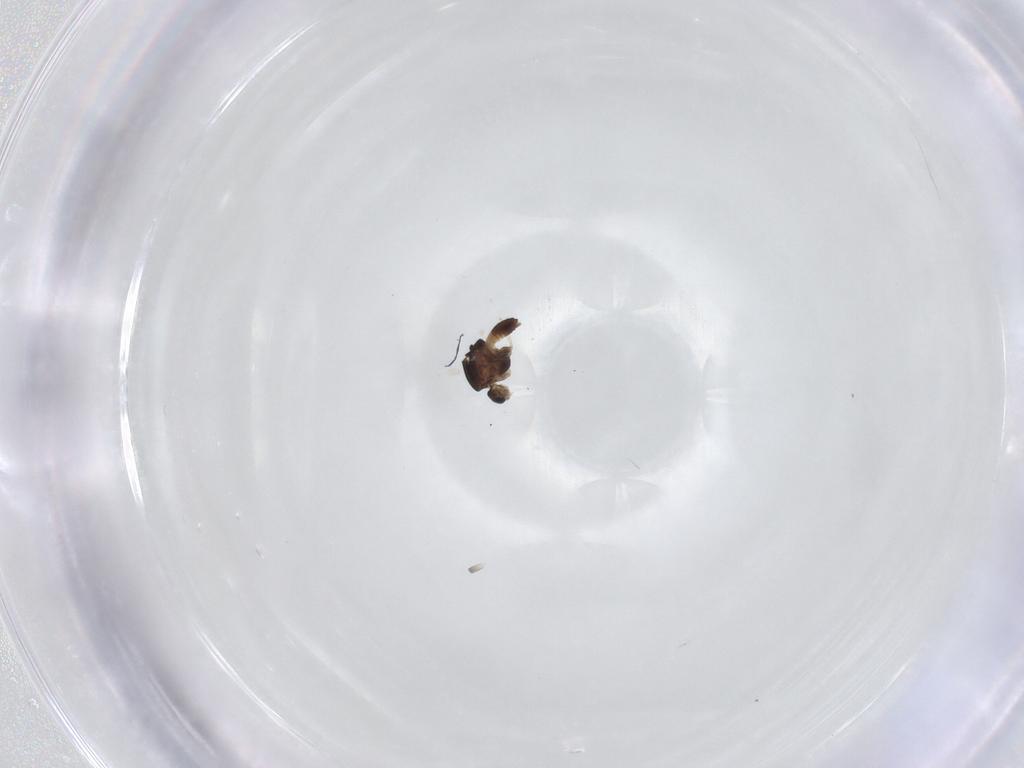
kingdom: Animalia
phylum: Arthropoda
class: Insecta
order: Diptera
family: Chironomidae
